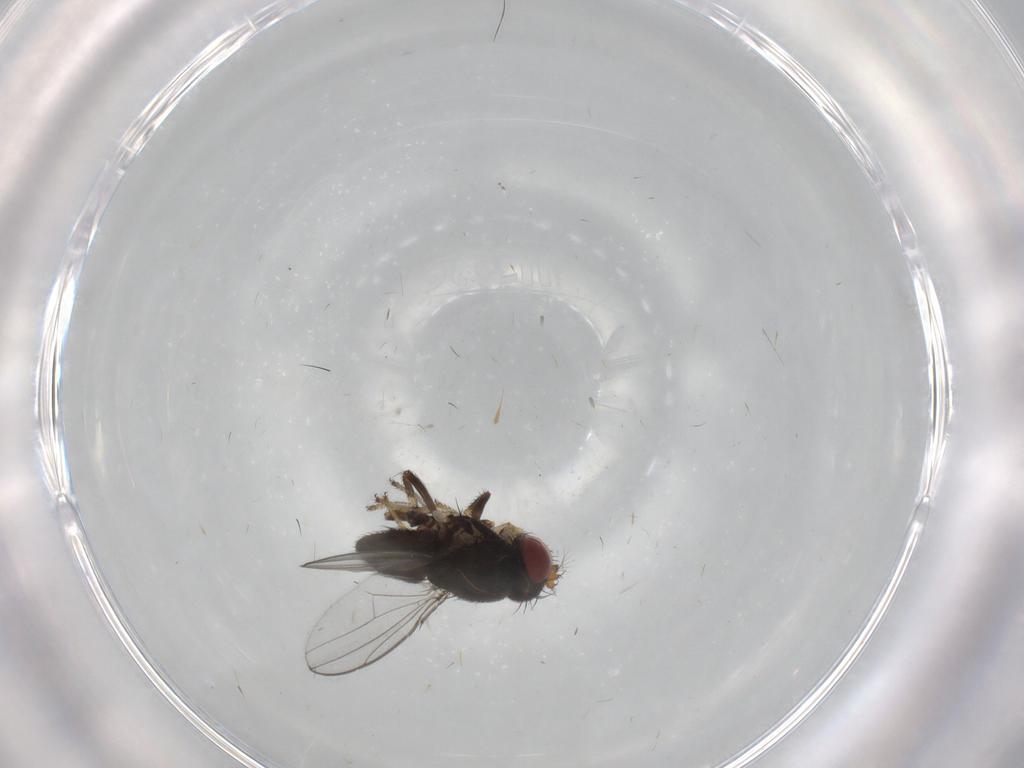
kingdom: Animalia
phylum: Arthropoda
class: Insecta
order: Diptera
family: Ephydridae
